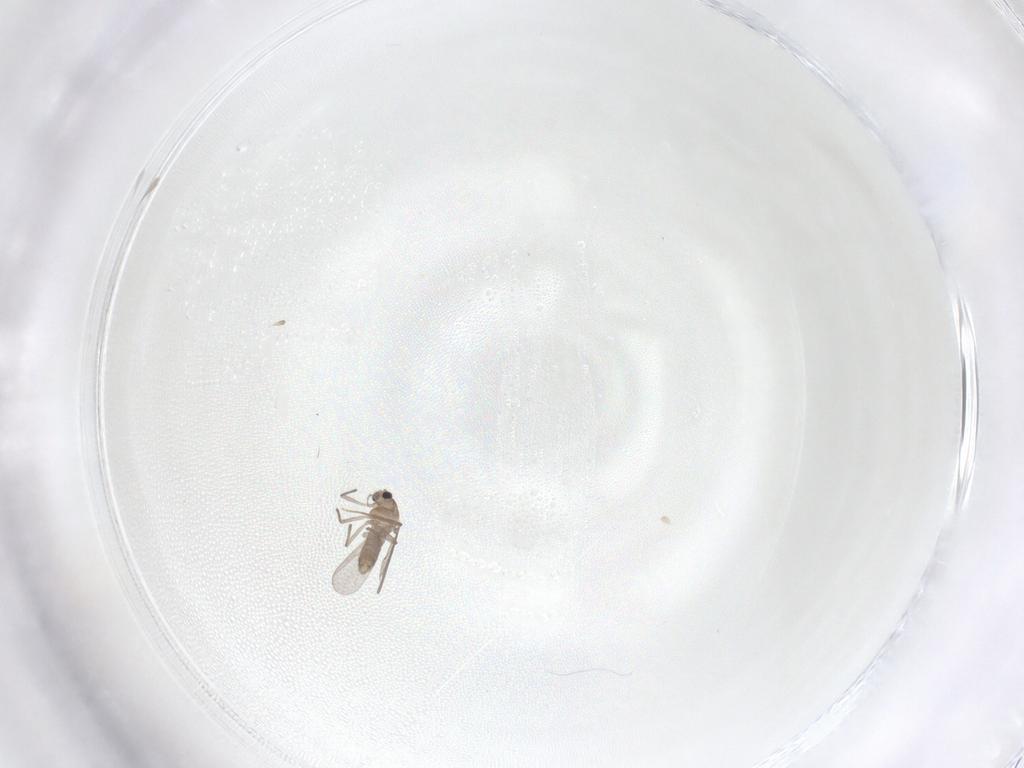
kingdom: Animalia
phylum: Arthropoda
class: Insecta
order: Diptera
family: Chironomidae
